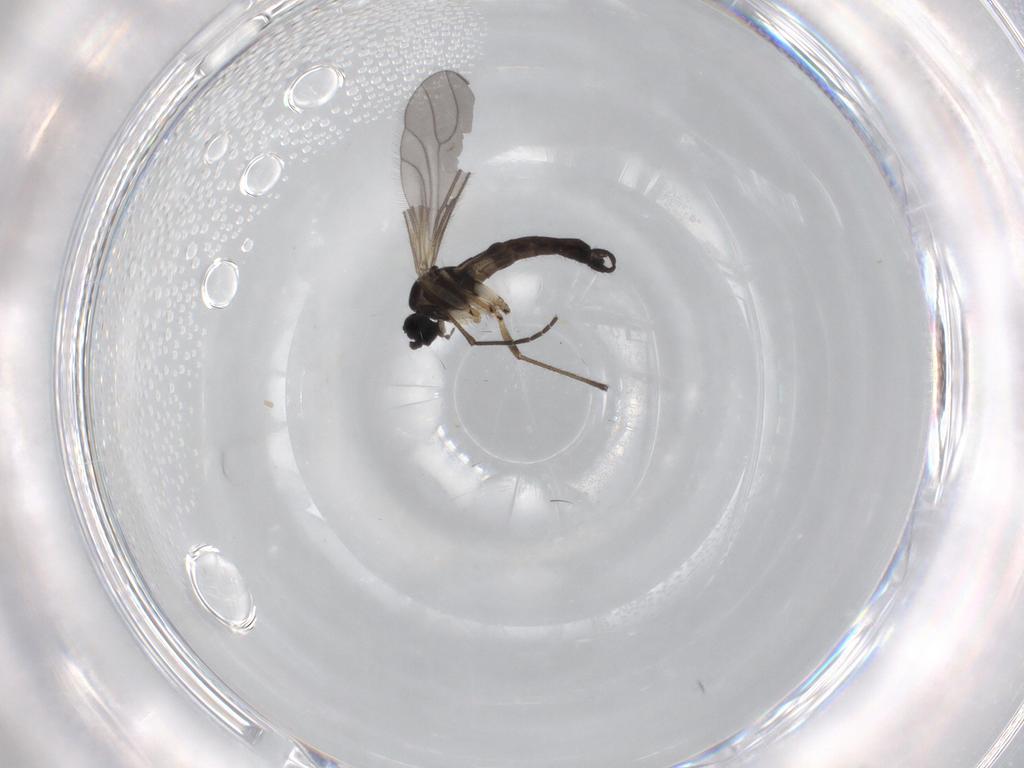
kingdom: Animalia
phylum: Arthropoda
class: Insecta
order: Diptera
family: Sciaridae
